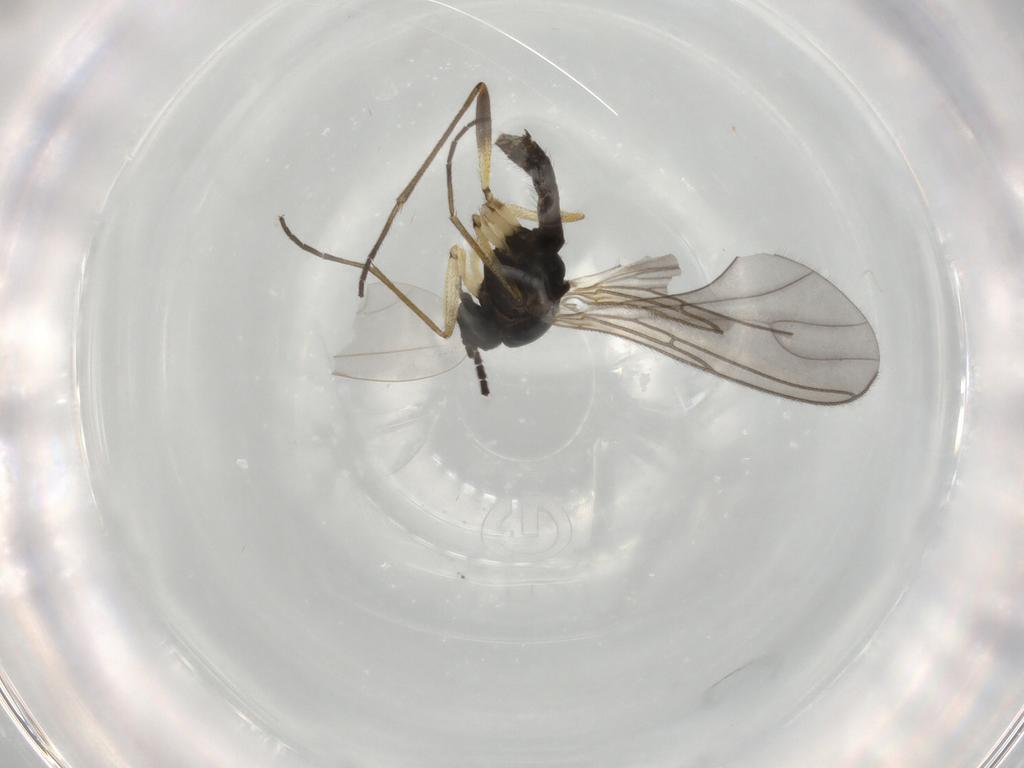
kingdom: Animalia
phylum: Arthropoda
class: Insecta
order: Diptera
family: Sciaridae
